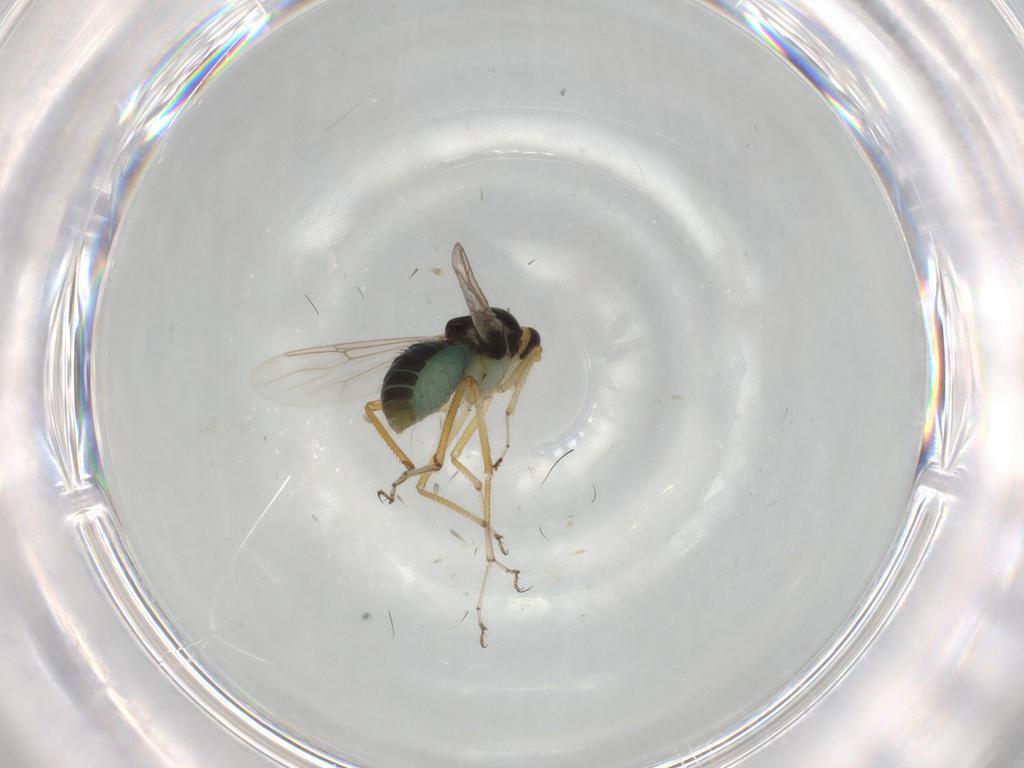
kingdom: Animalia
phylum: Arthropoda
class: Insecta
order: Diptera
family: Ceratopogonidae
